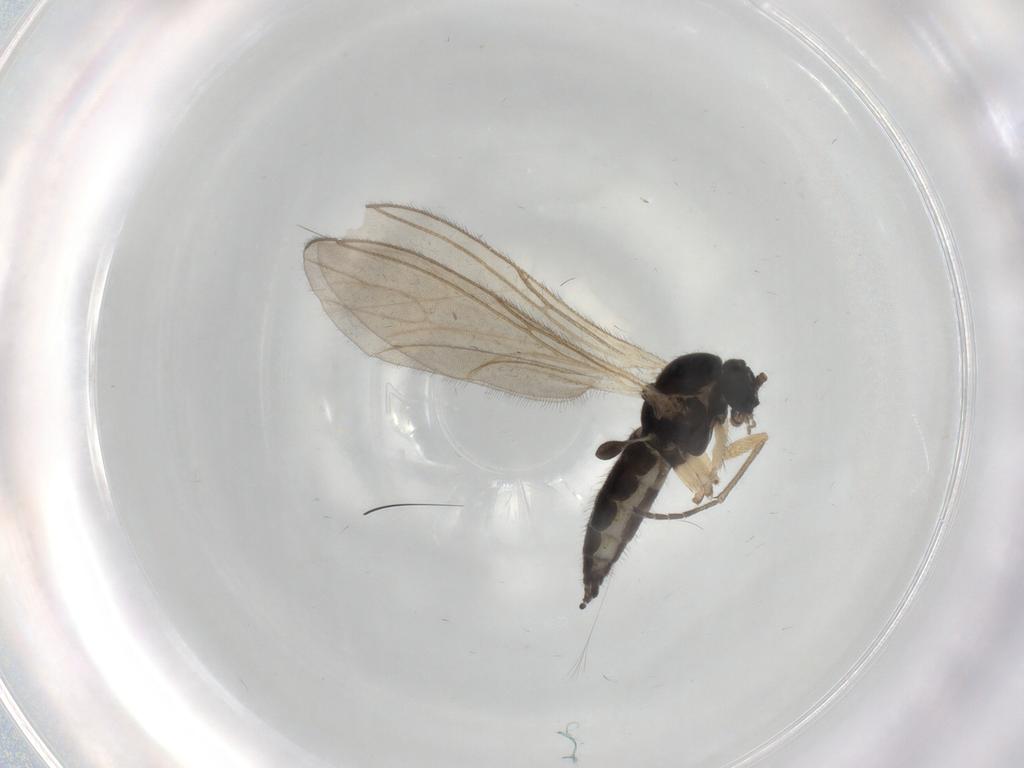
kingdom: Animalia
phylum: Arthropoda
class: Insecta
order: Diptera
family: Sciaridae
